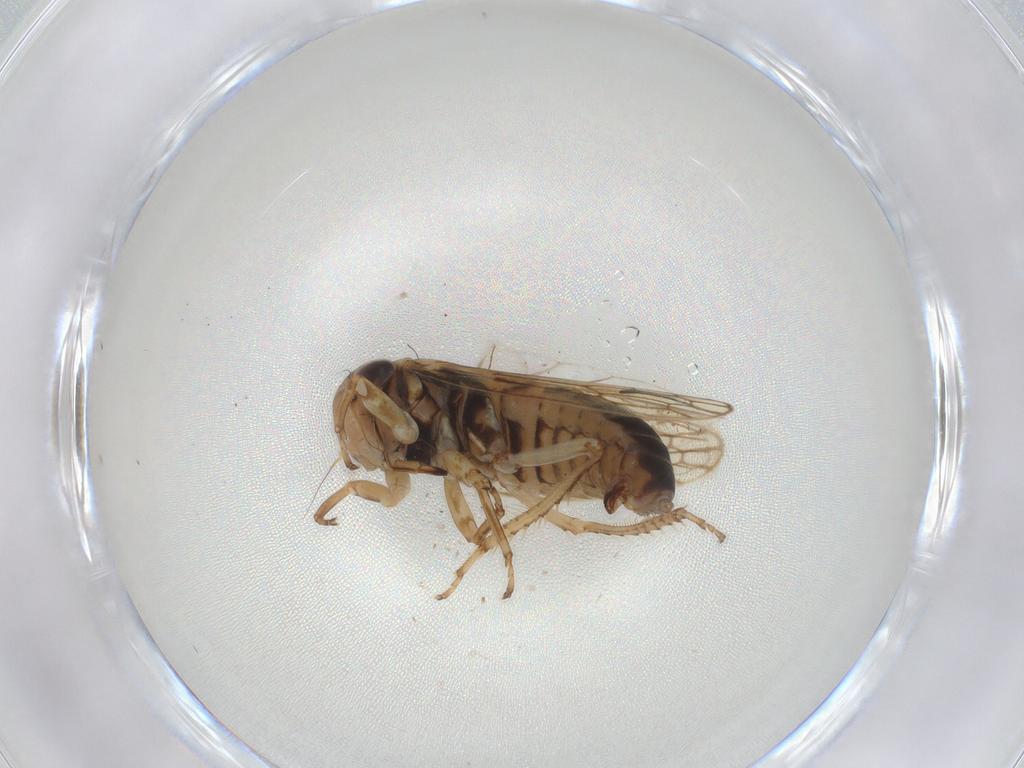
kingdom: Animalia
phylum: Arthropoda
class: Insecta
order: Hemiptera
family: Cicadellidae
